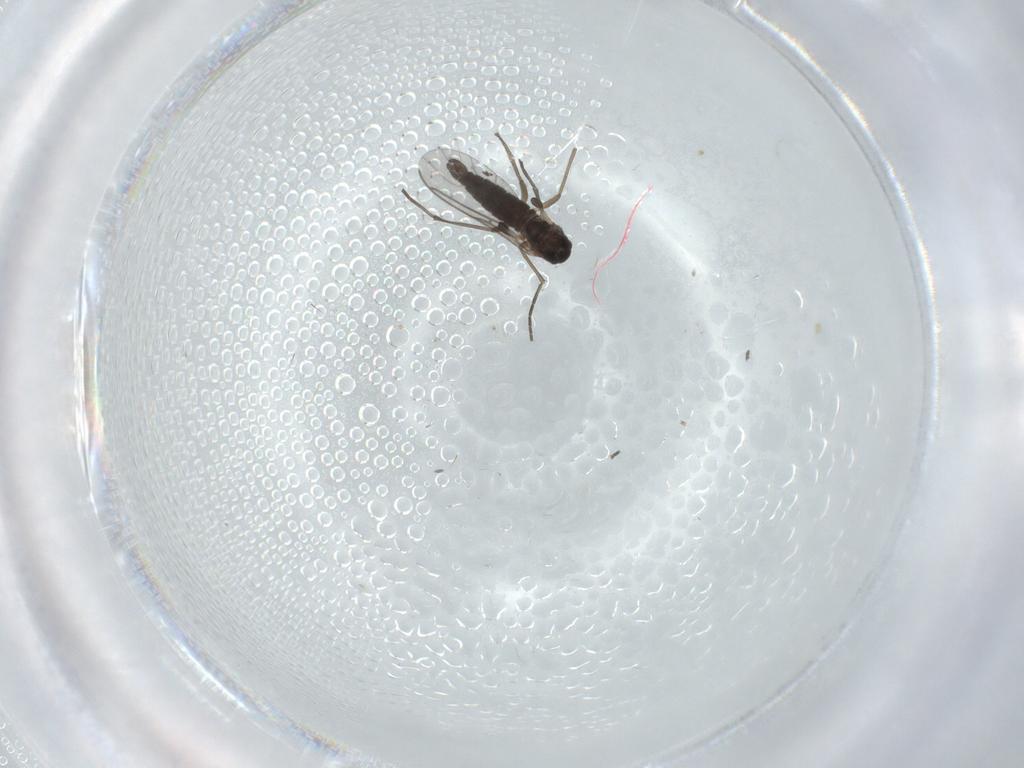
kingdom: Animalia
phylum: Arthropoda
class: Insecta
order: Diptera
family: Sciaridae
